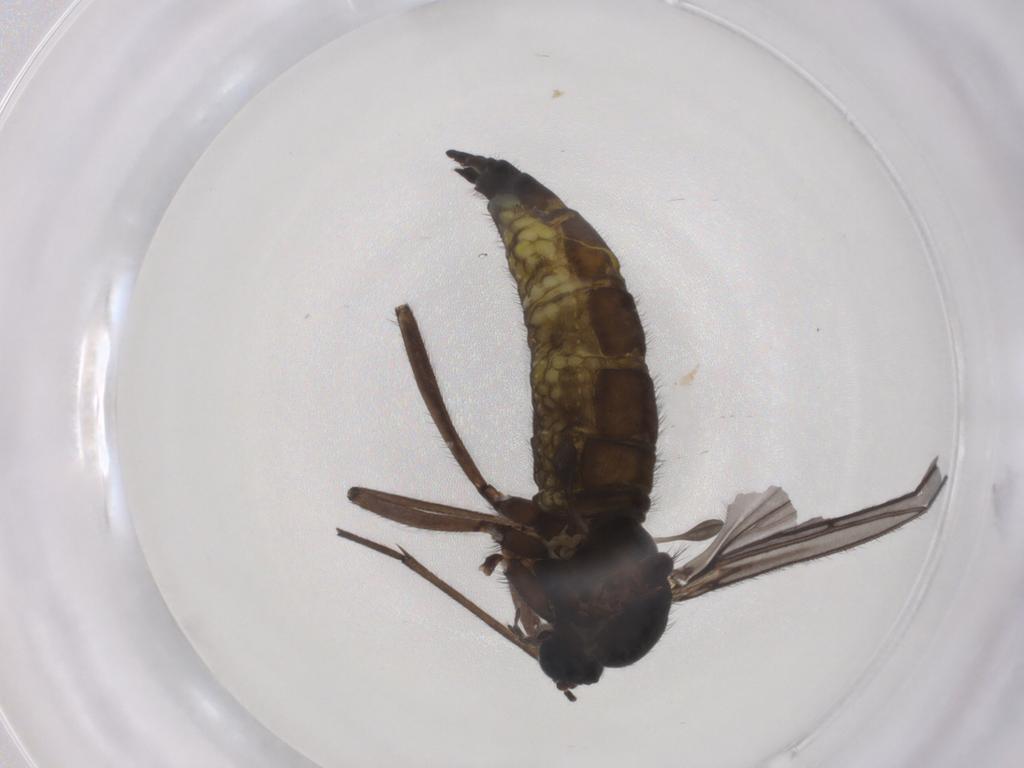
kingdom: Animalia
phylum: Arthropoda
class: Insecta
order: Diptera
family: Sciaridae
